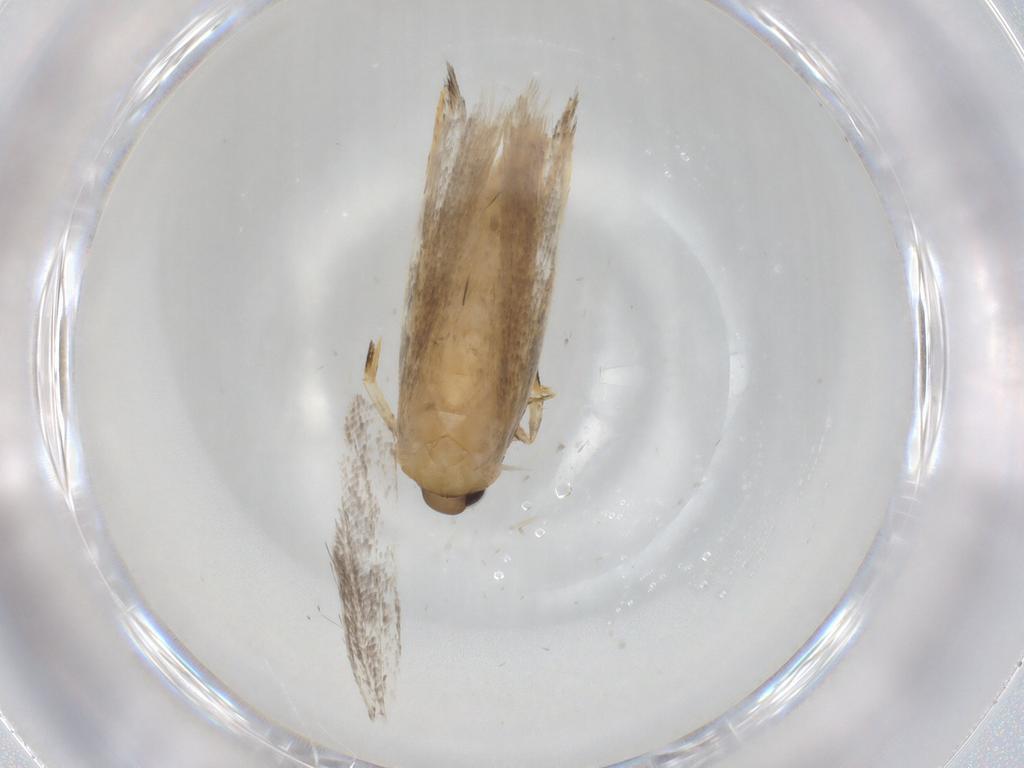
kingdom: Animalia
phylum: Arthropoda
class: Insecta
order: Lepidoptera
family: Autostichidae
